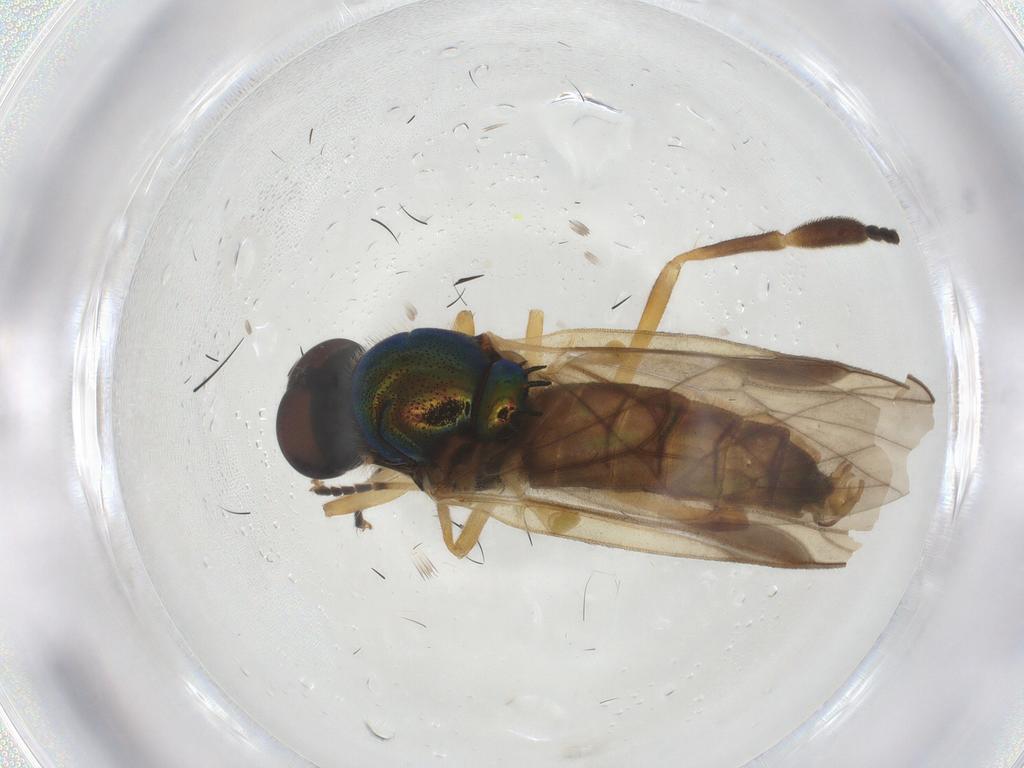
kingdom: Animalia
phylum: Arthropoda
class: Insecta
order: Diptera
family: Stratiomyidae
